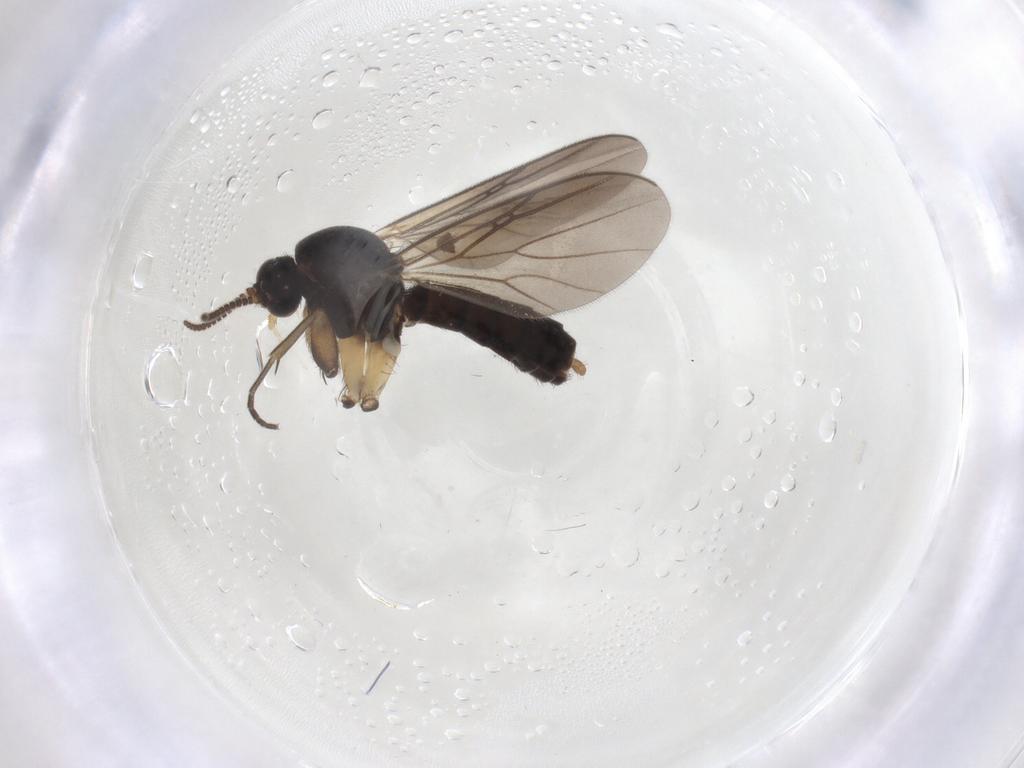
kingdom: Animalia
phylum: Arthropoda
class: Insecta
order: Diptera
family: Mycetophilidae
